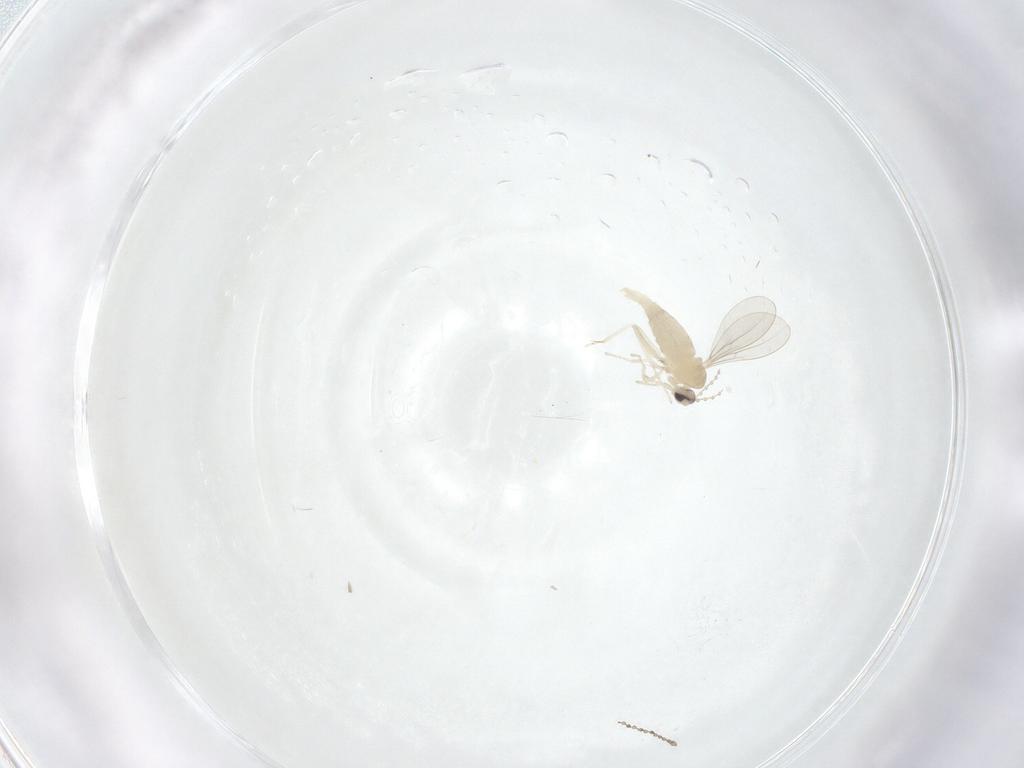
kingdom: Animalia
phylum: Arthropoda
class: Insecta
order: Diptera
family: Cecidomyiidae
